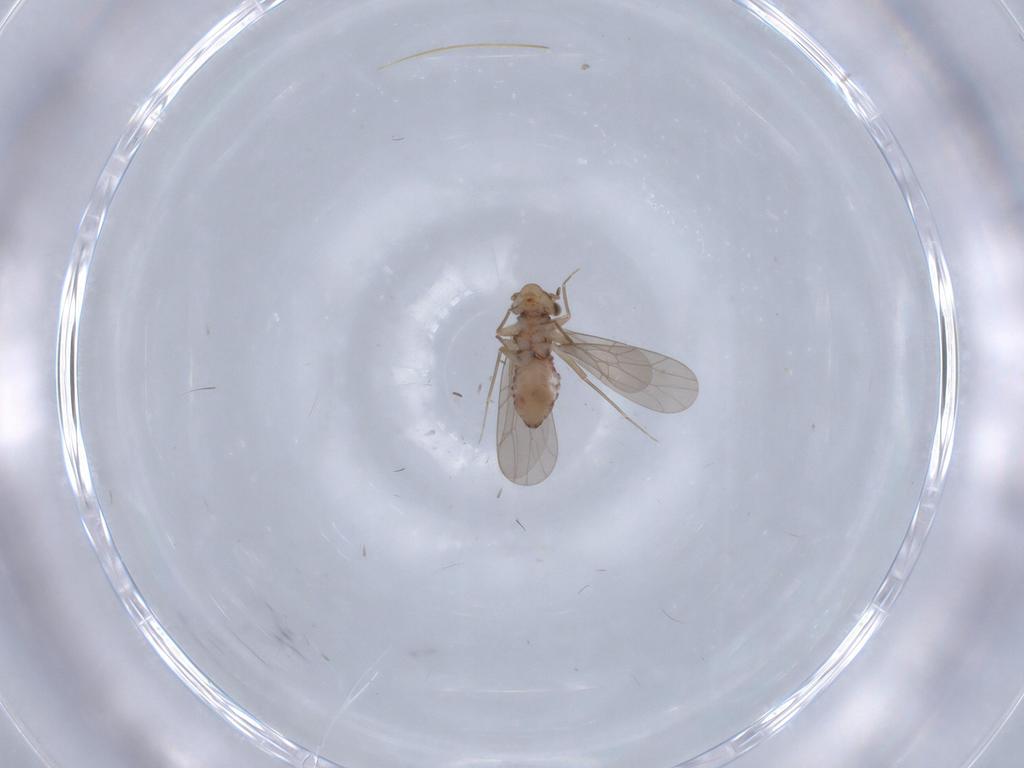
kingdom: Animalia
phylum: Arthropoda
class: Insecta
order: Psocodea
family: Lepidopsocidae
